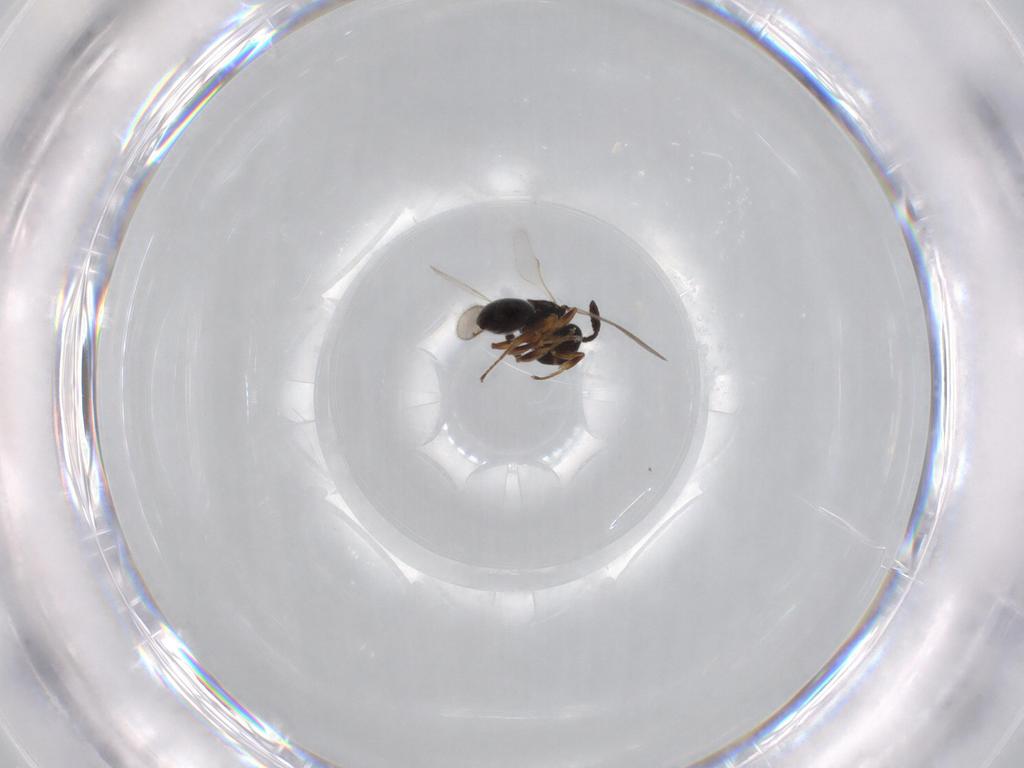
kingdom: Animalia
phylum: Arthropoda
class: Insecta
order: Hymenoptera
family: Scelionidae
